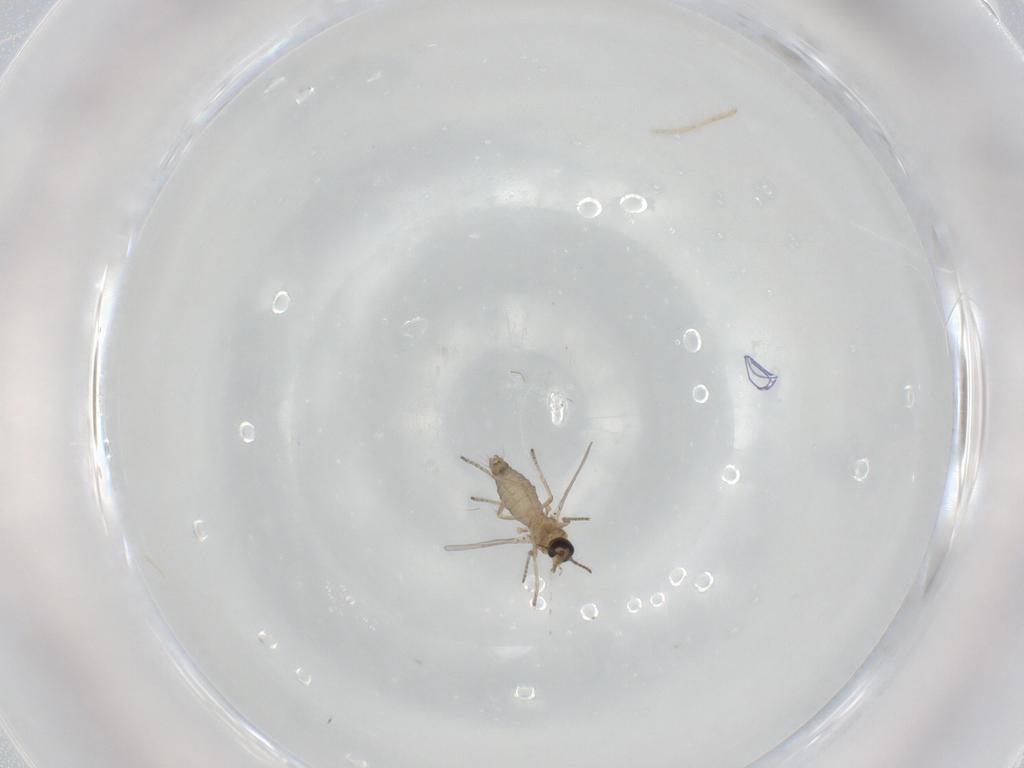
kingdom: Animalia
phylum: Arthropoda
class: Insecta
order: Diptera
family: Ceratopogonidae
